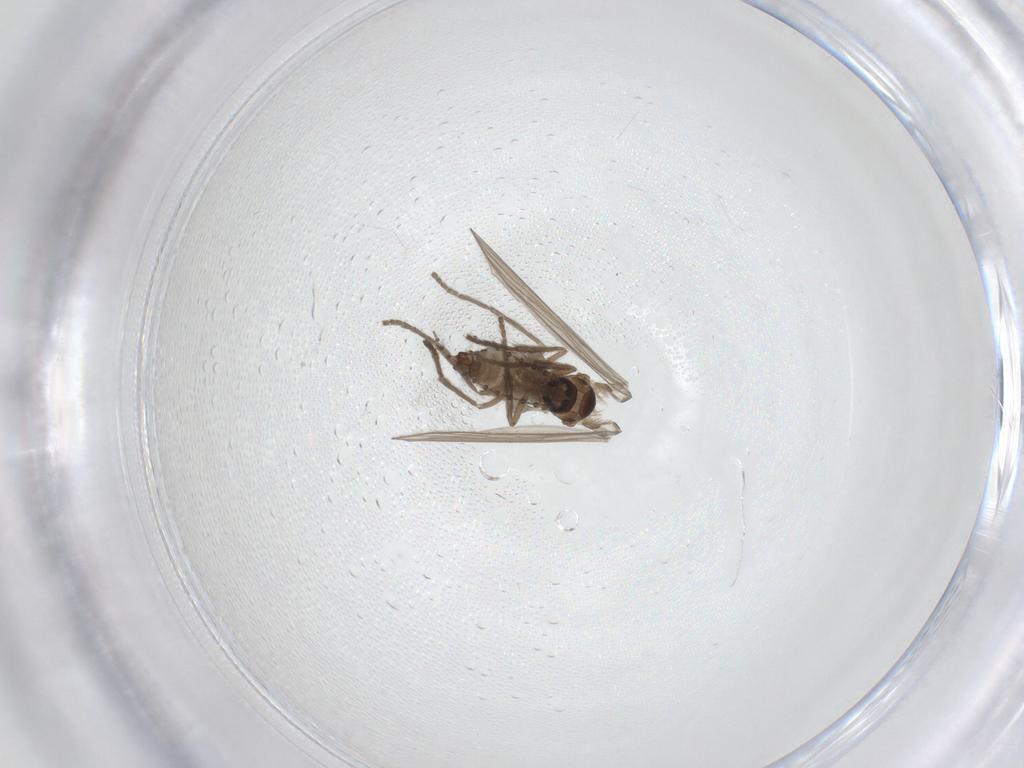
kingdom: Animalia
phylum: Arthropoda
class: Insecta
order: Diptera
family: Psychodidae
